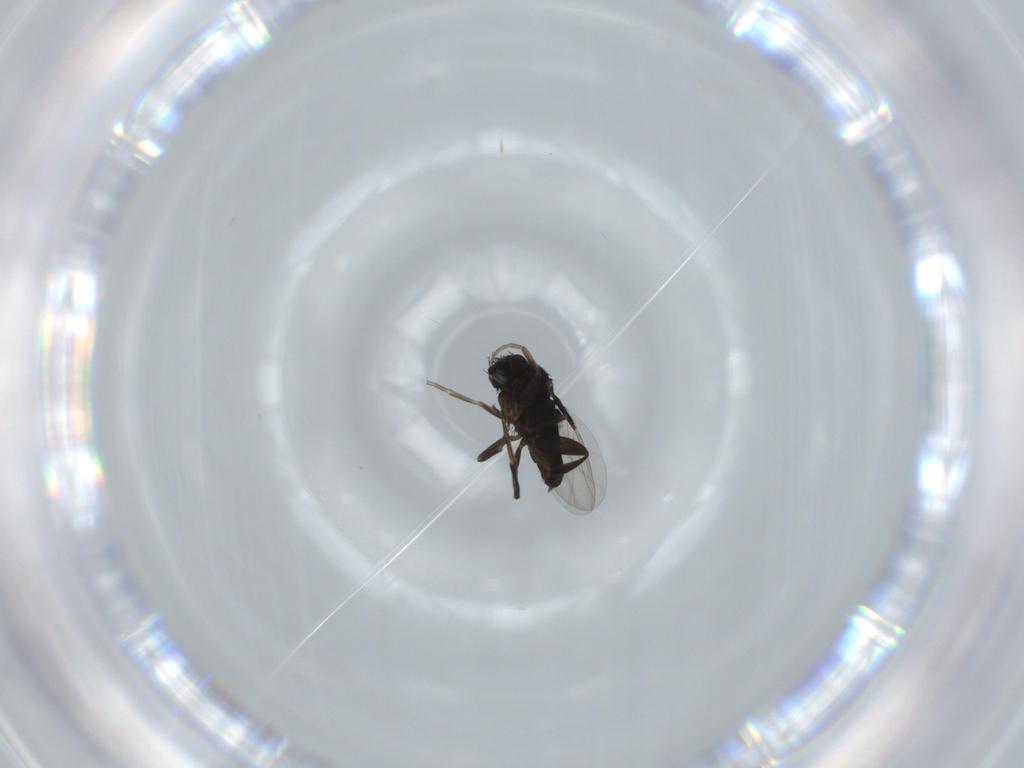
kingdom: Animalia
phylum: Arthropoda
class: Insecta
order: Diptera
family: Phoridae
